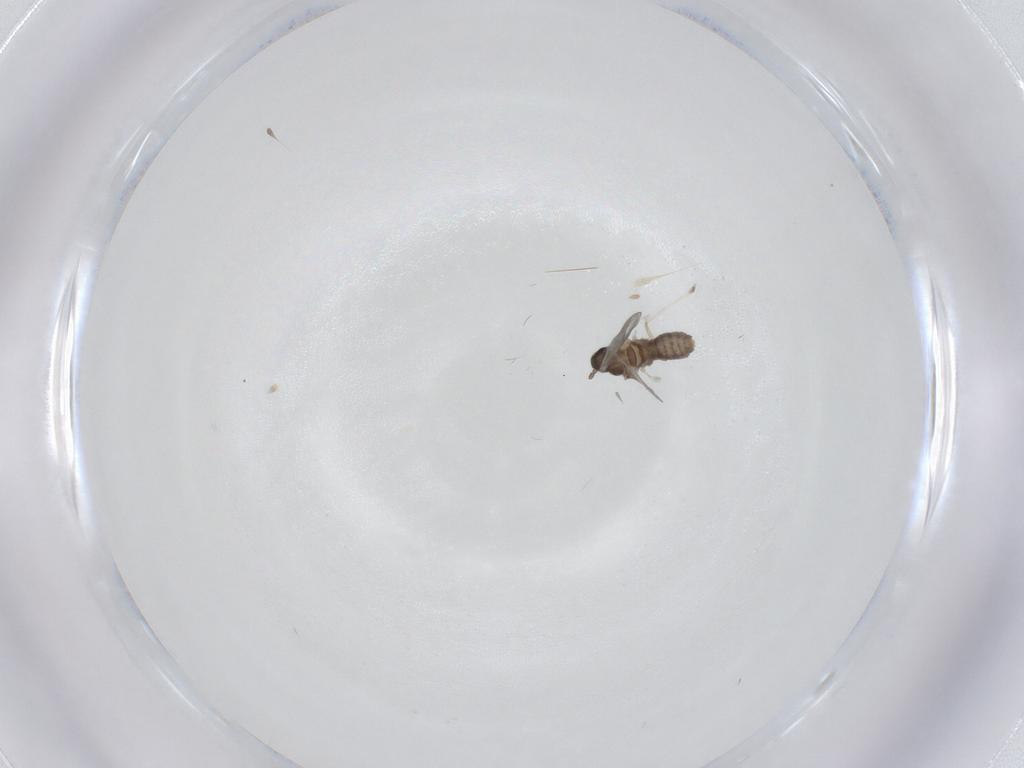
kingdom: Animalia
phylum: Arthropoda
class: Insecta
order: Diptera
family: Cecidomyiidae
